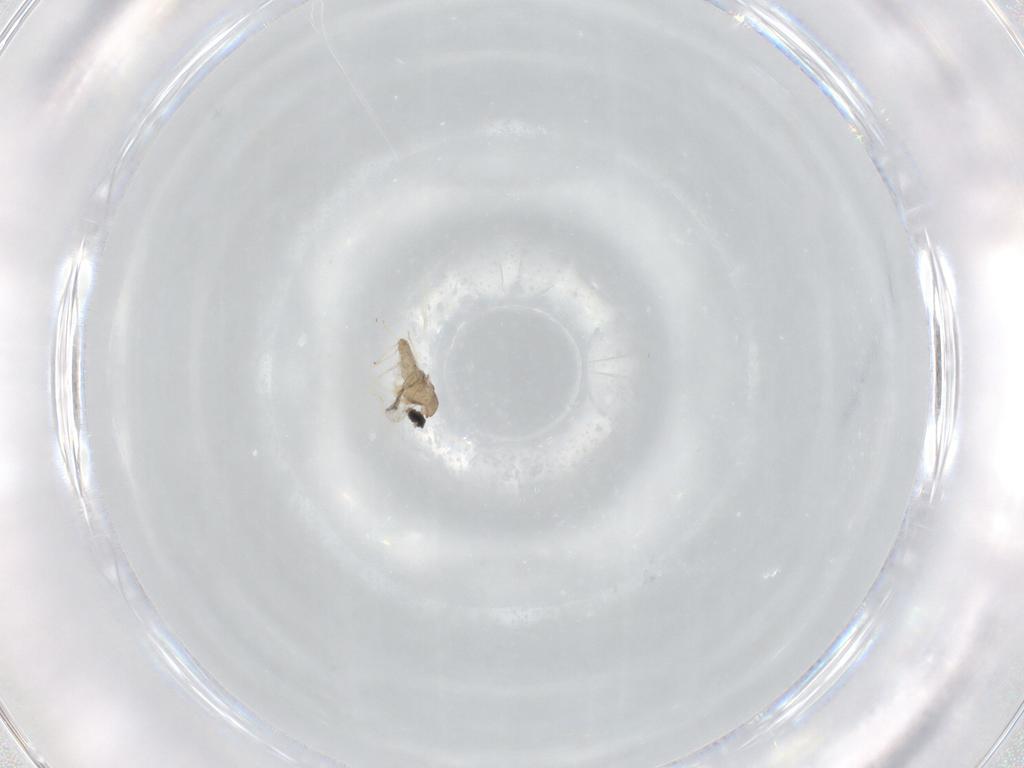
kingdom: Animalia
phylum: Arthropoda
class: Insecta
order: Diptera
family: Cecidomyiidae
